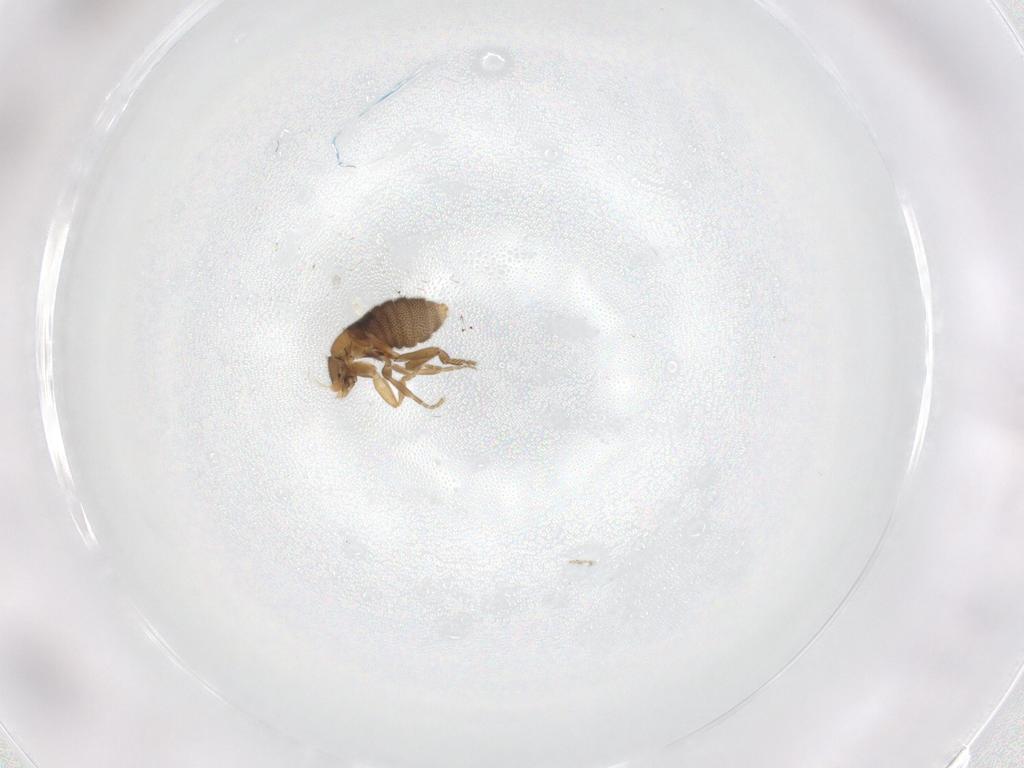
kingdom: Animalia
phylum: Arthropoda
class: Insecta
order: Diptera
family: Phoridae
